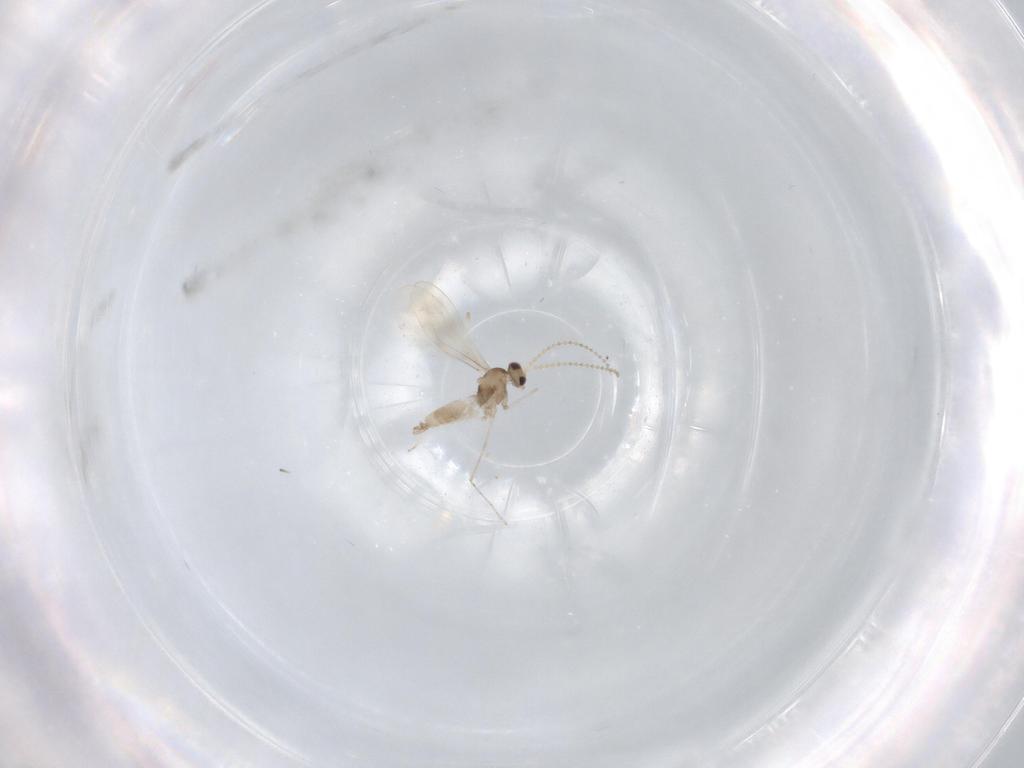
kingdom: Animalia
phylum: Arthropoda
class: Insecta
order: Diptera
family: Cecidomyiidae
